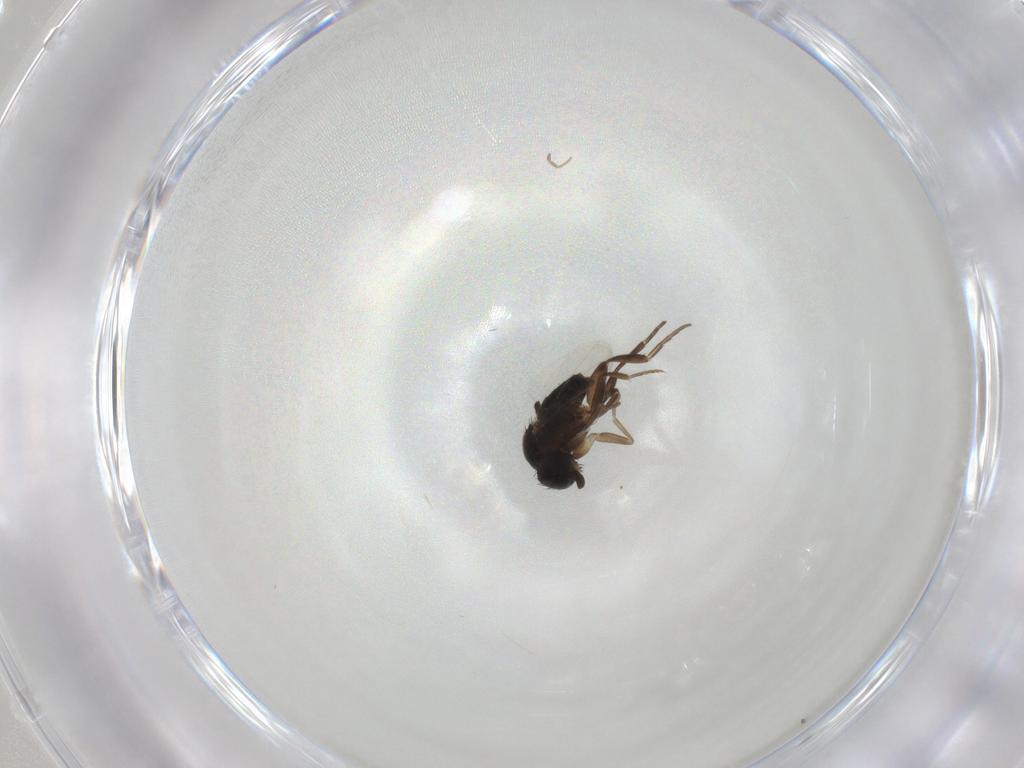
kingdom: Animalia
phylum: Arthropoda
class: Insecta
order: Diptera
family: Phoridae
